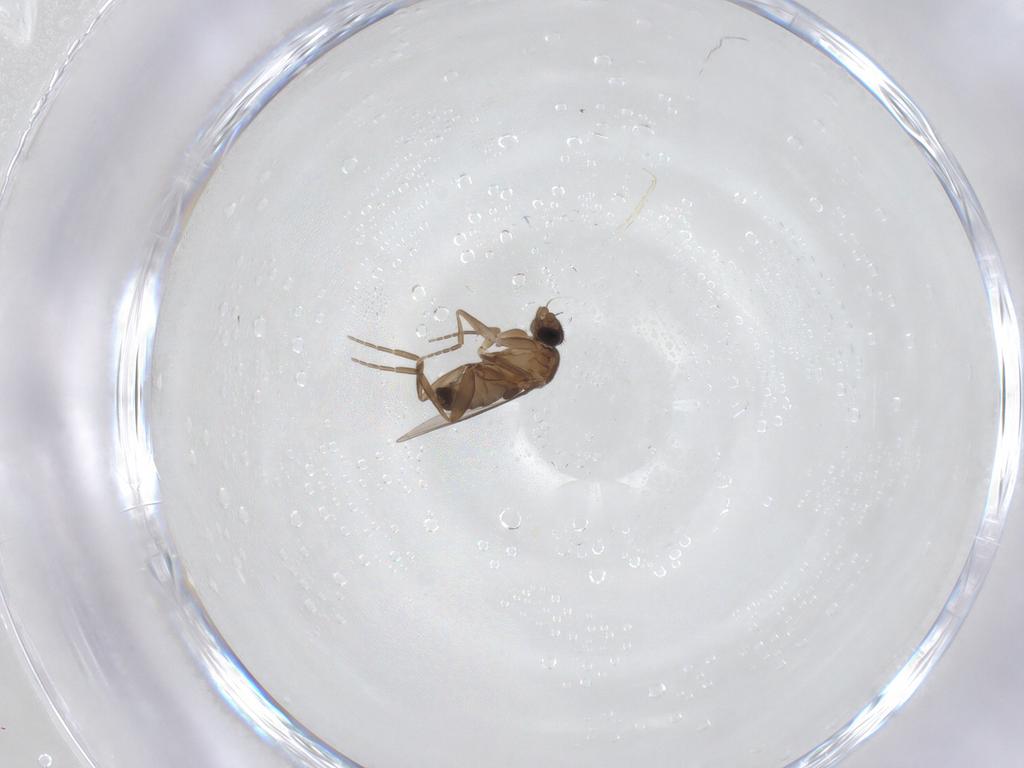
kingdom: Animalia
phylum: Arthropoda
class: Insecta
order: Diptera
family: Phoridae
